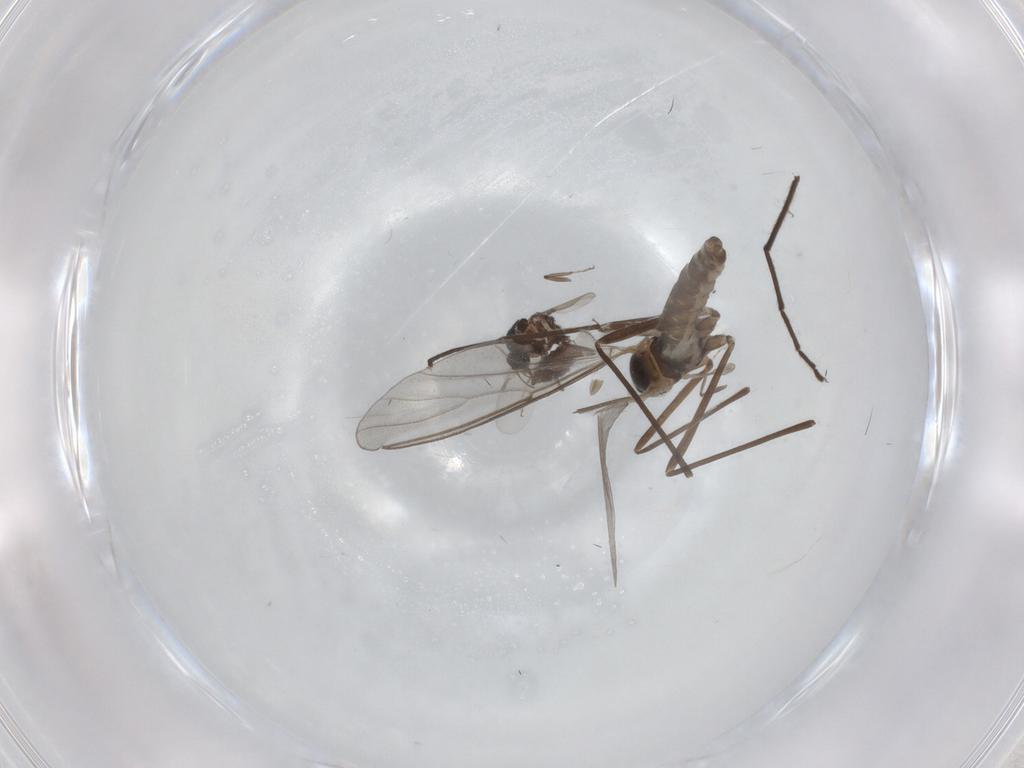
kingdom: Animalia
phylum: Arthropoda
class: Insecta
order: Diptera
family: Cecidomyiidae
